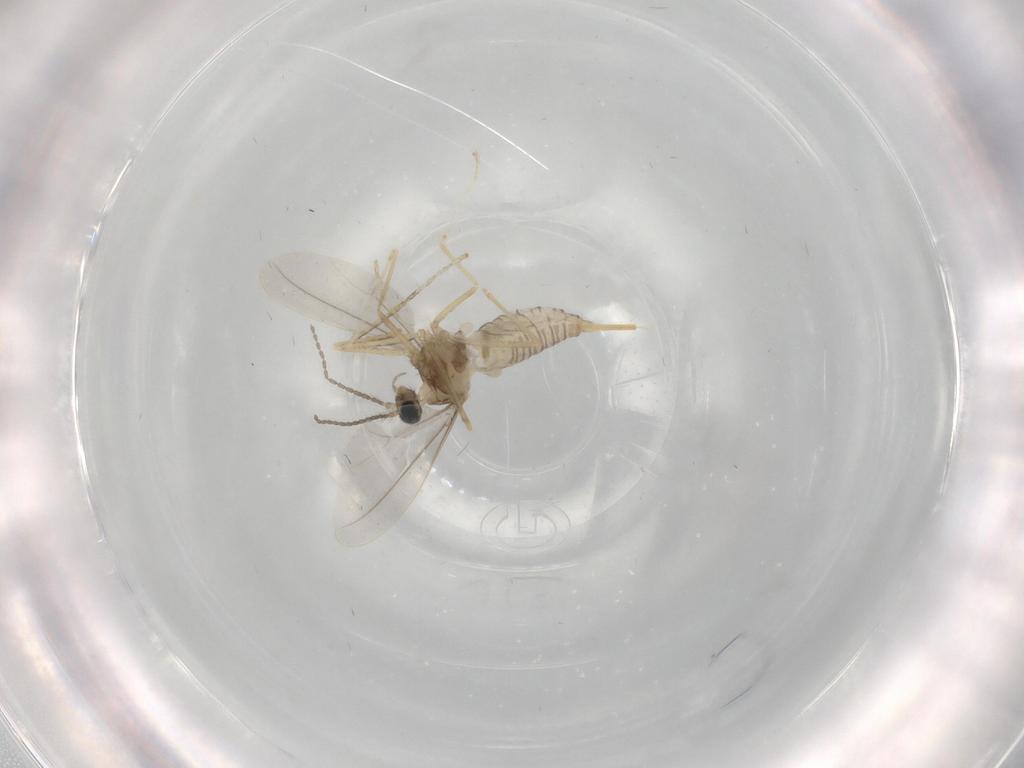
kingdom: Animalia
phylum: Arthropoda
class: Insecta
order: Diptera
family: Cecidomyiidae
